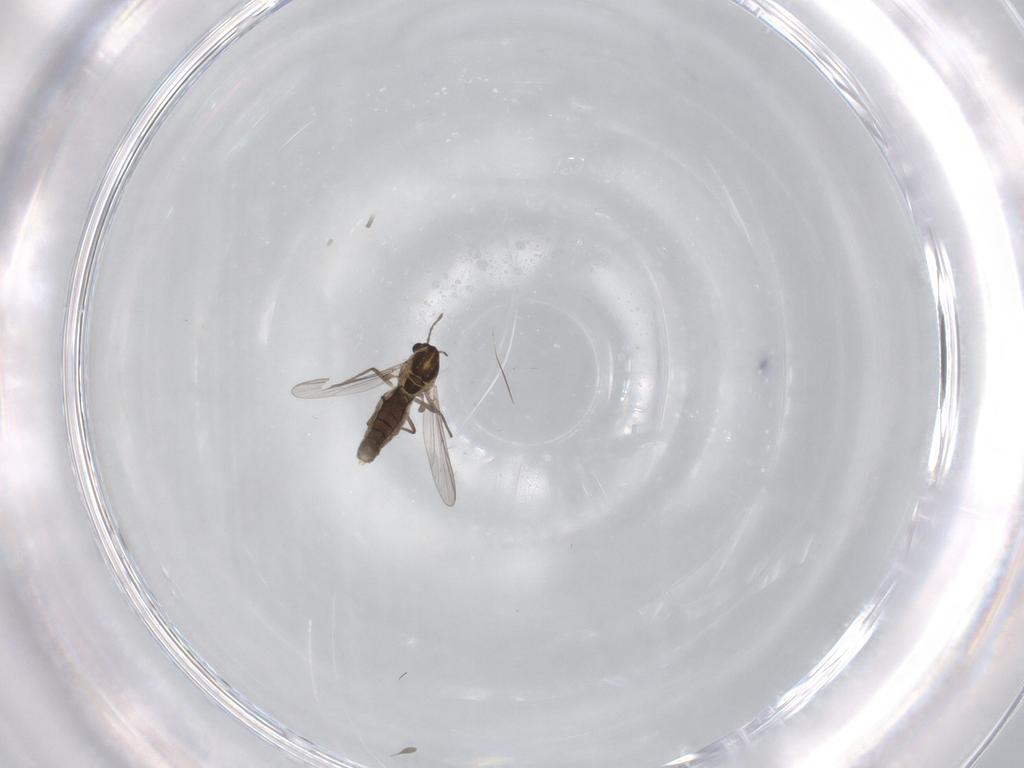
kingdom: Animalia
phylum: Arthropoda
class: Insecta
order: Diptera
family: Chironomidae
